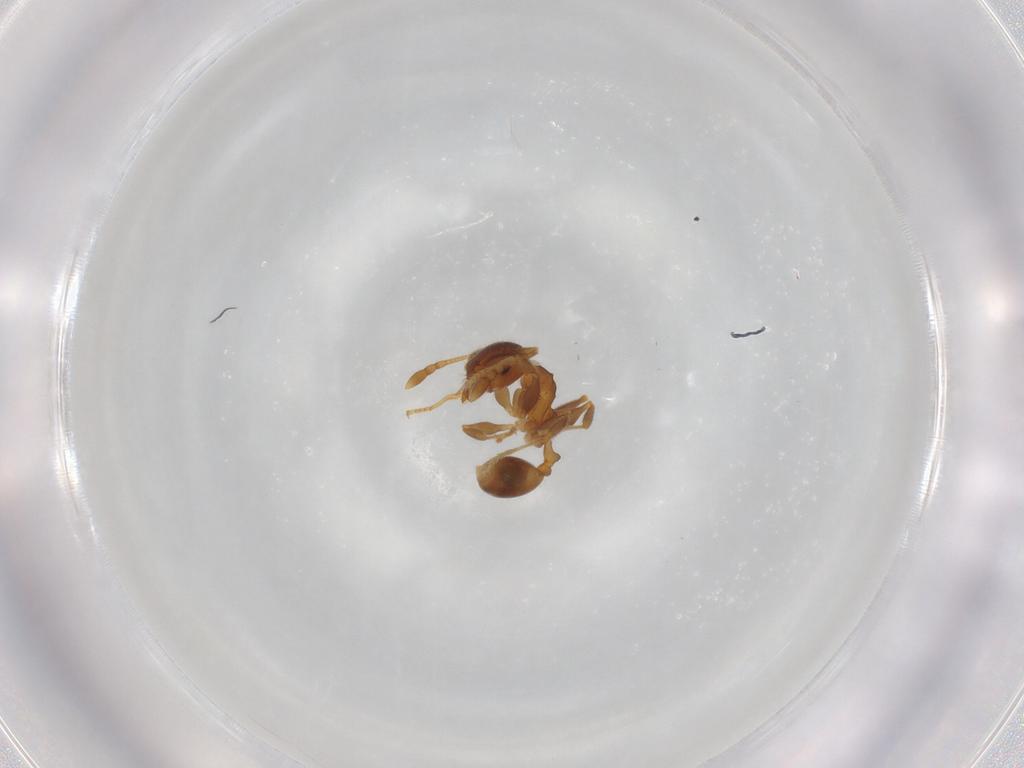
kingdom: Animalia
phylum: Arthropoda
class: Insecta
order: Hymenoptera
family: Formicidae
